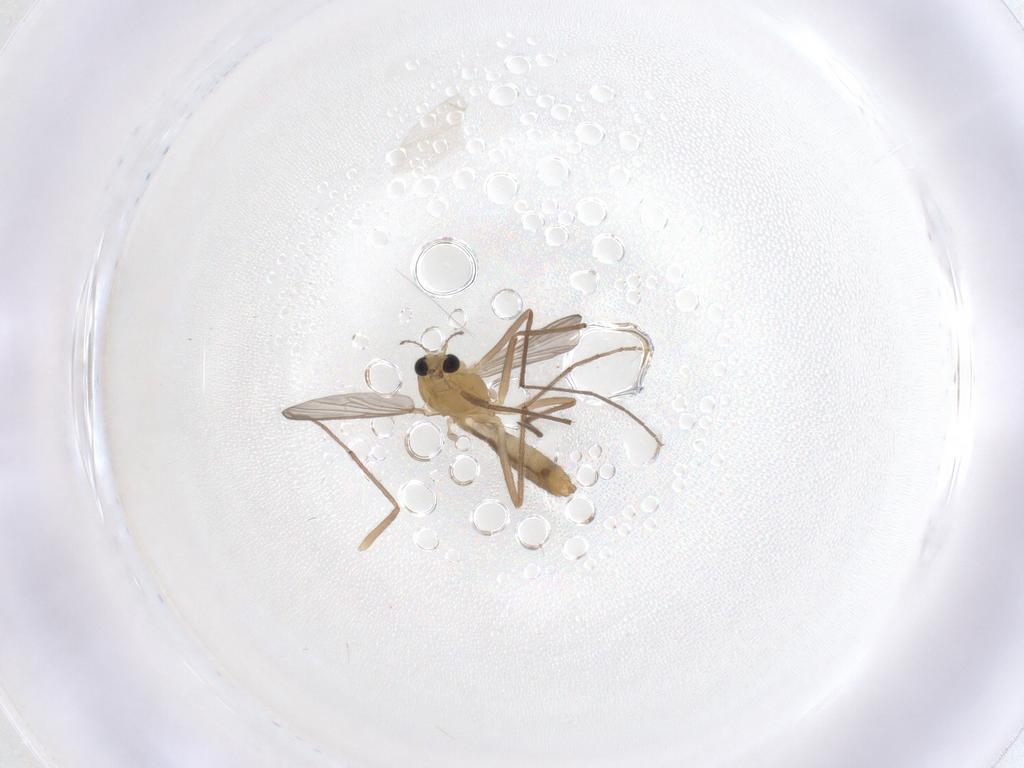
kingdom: Animalia
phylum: Arthropoda
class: Insecta
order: Diptera
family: Chironomidae
